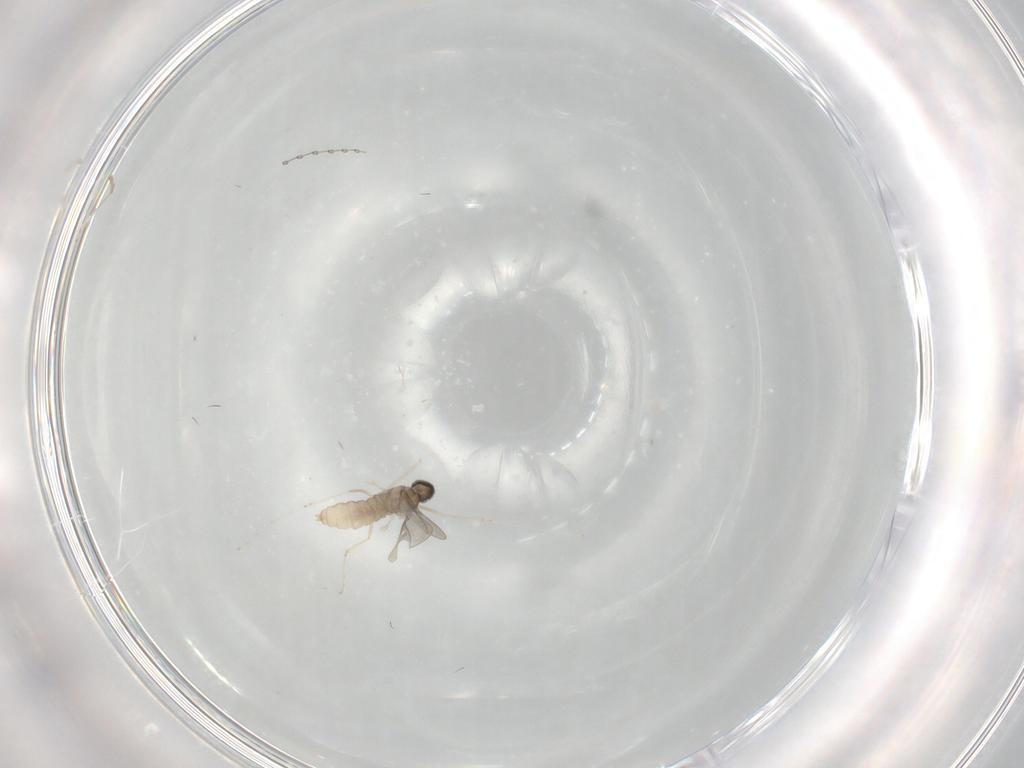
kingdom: Animalia
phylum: Arthropoda
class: Insecta
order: Diptera
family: Cecidomyiidae
